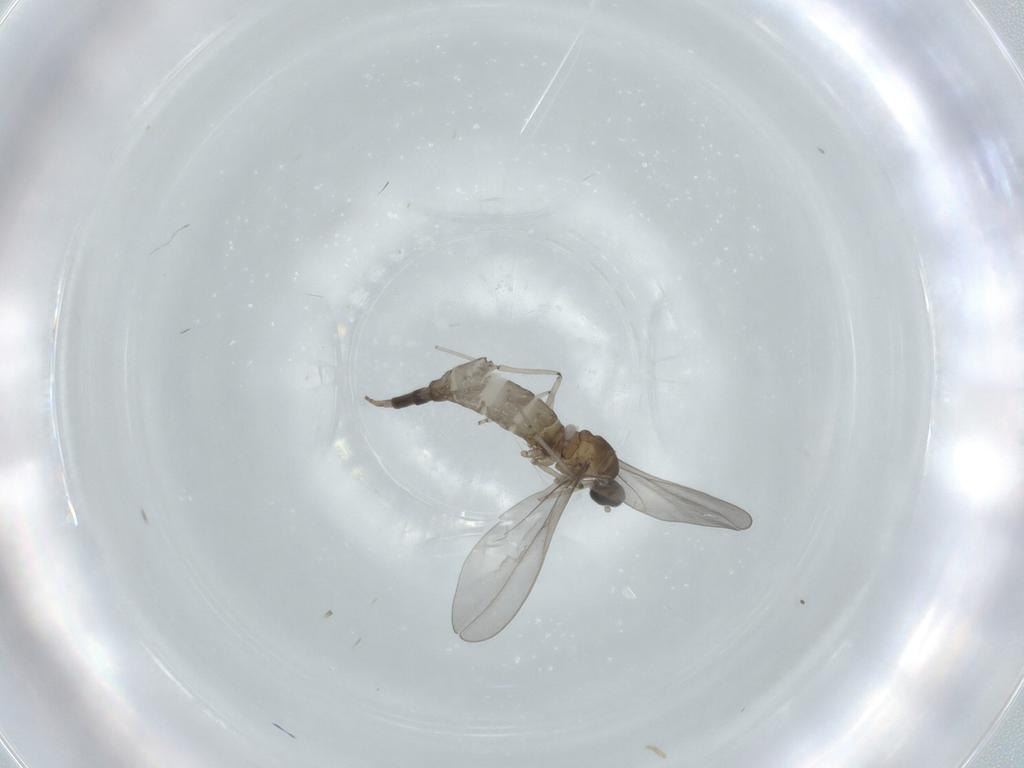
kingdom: Animalia
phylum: Arthropoda
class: Insecta
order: Diptera
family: Cecidomyiidae
